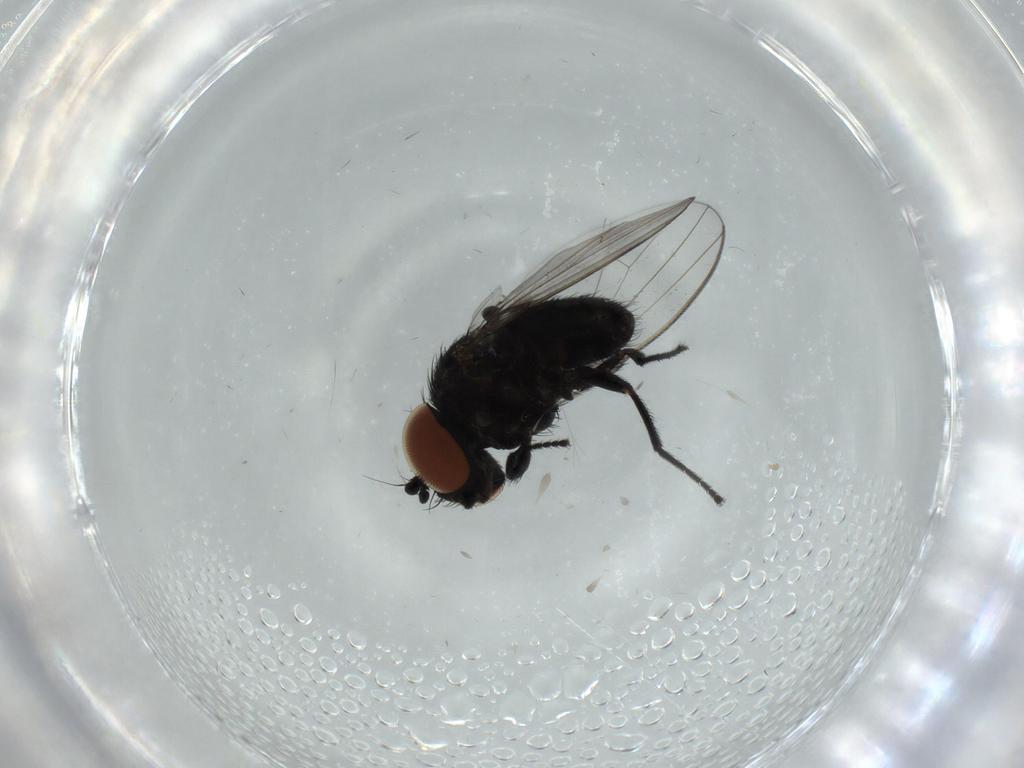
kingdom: Animalia
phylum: Arthropoda
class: Insecta
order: Diptera
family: Milichiidae
